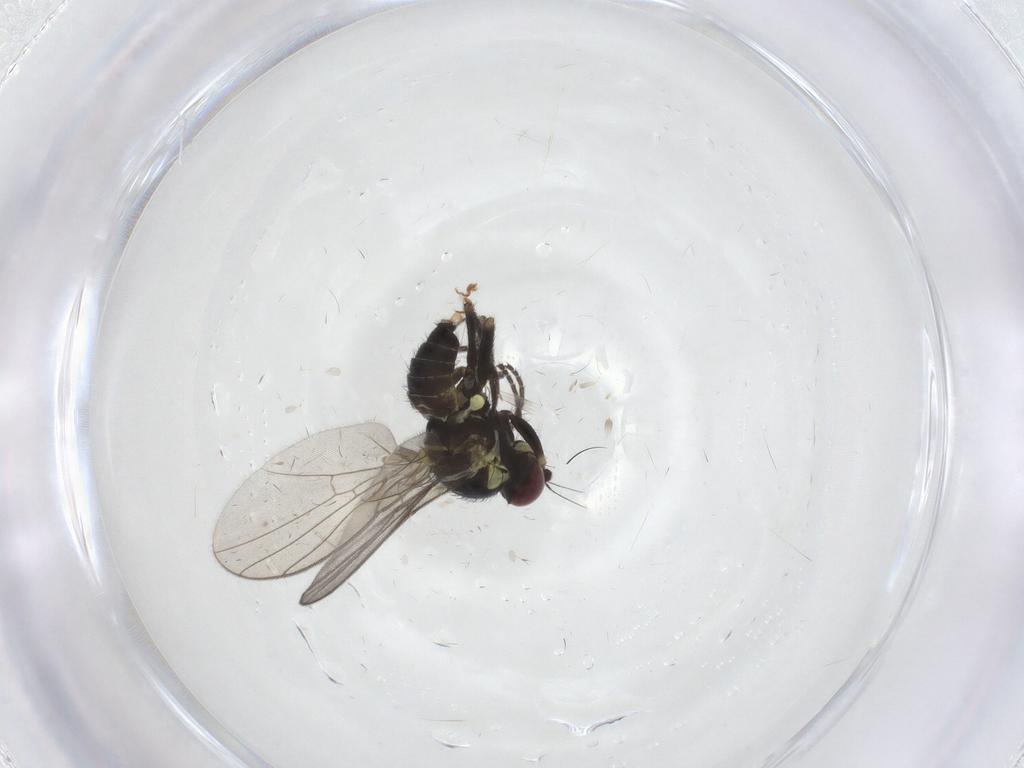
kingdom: Animalia
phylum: Arthropoda
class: Insecta
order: Diptera
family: Agromyzidae
